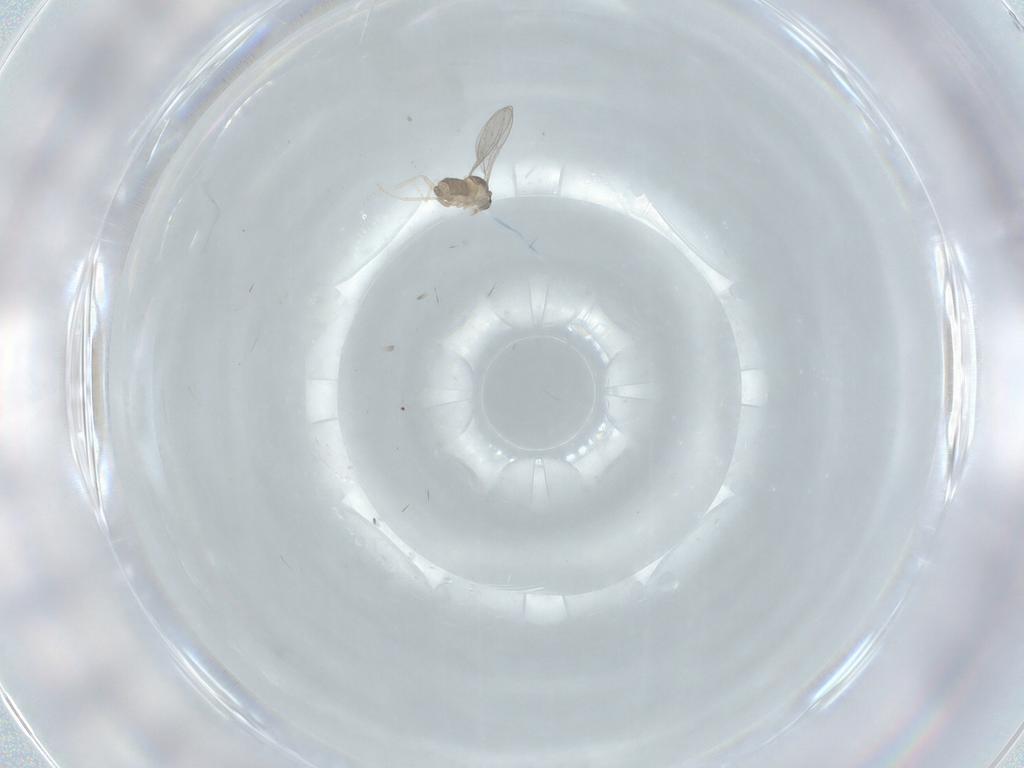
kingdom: Animalia
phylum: Arthropoda
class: Insecta
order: Diptera
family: Cecidomyiidae
